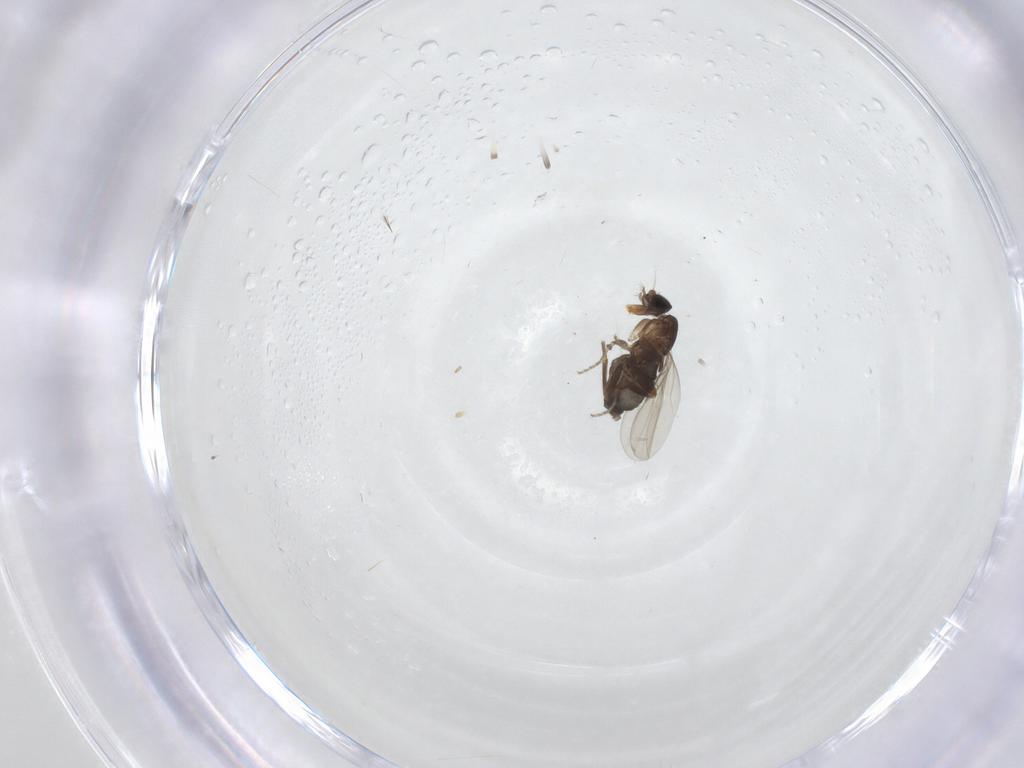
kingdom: Animalia
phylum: Arthropoda
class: Insecta
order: Diptera
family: Phoridae
